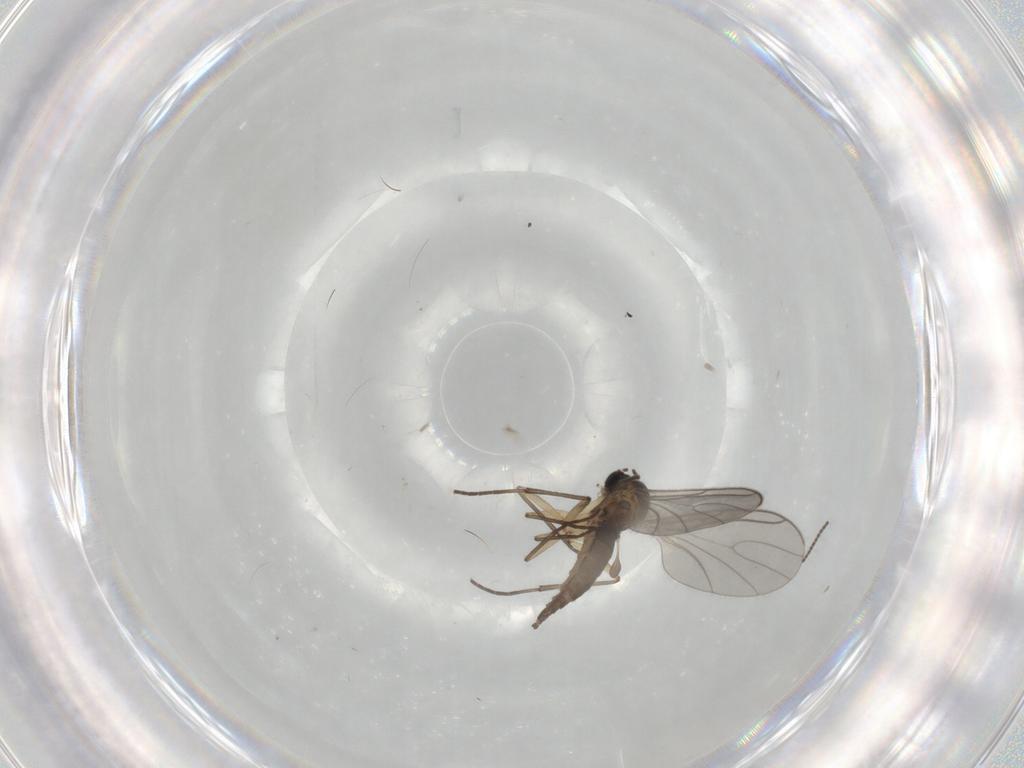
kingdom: Animalia
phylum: Arthropoda
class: Insecta
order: Diptera
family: Sciaridae
